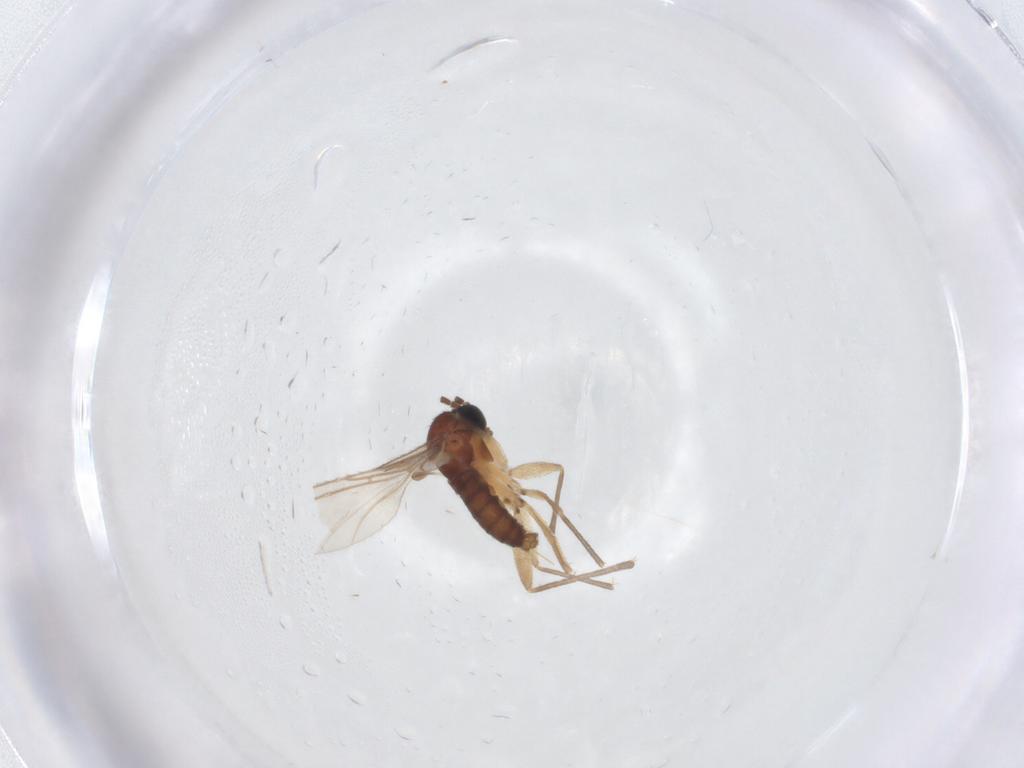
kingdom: Animalia
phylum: Arthropoda
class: Insecta
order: Diptera
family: Sciaridae
